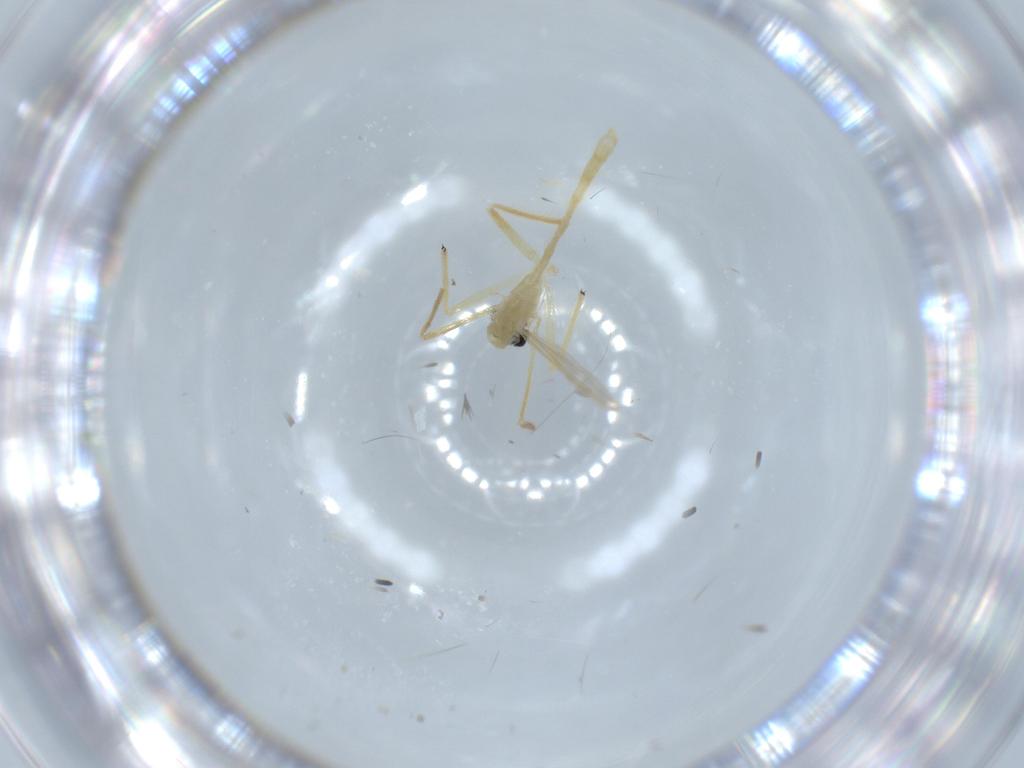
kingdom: Animalia
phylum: Arthropoda
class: Insecta
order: Diptera
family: Chironomidae
